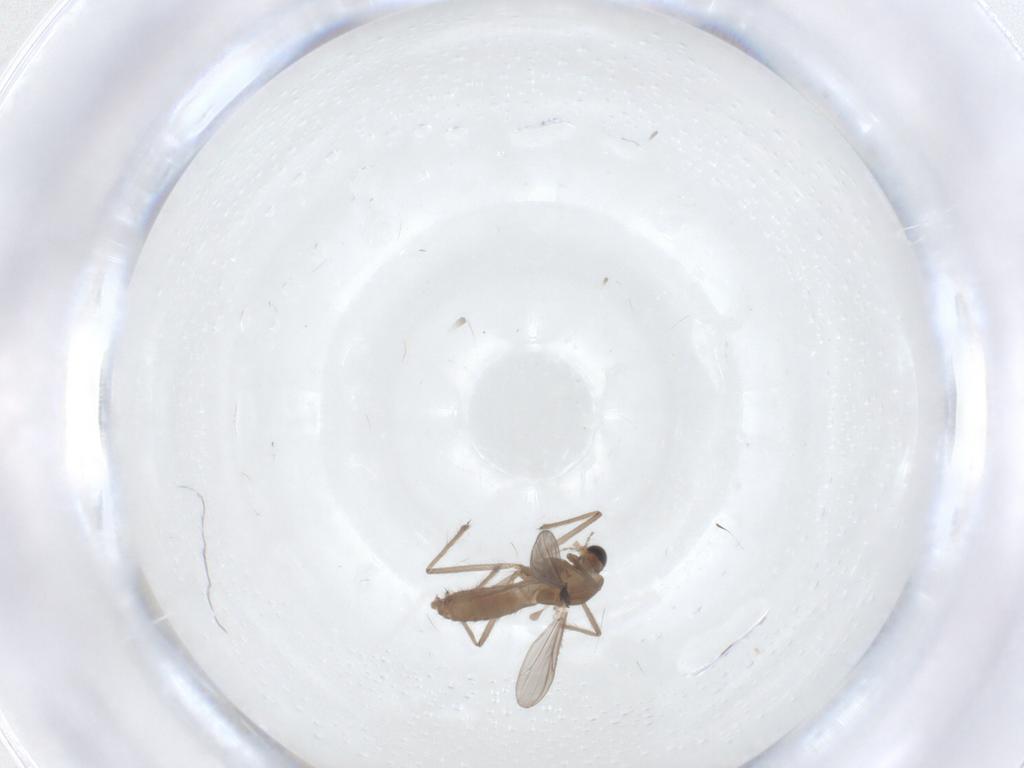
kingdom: Animalia
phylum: Arthropoda
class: Insecta
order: Diptera
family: Chironomidae
